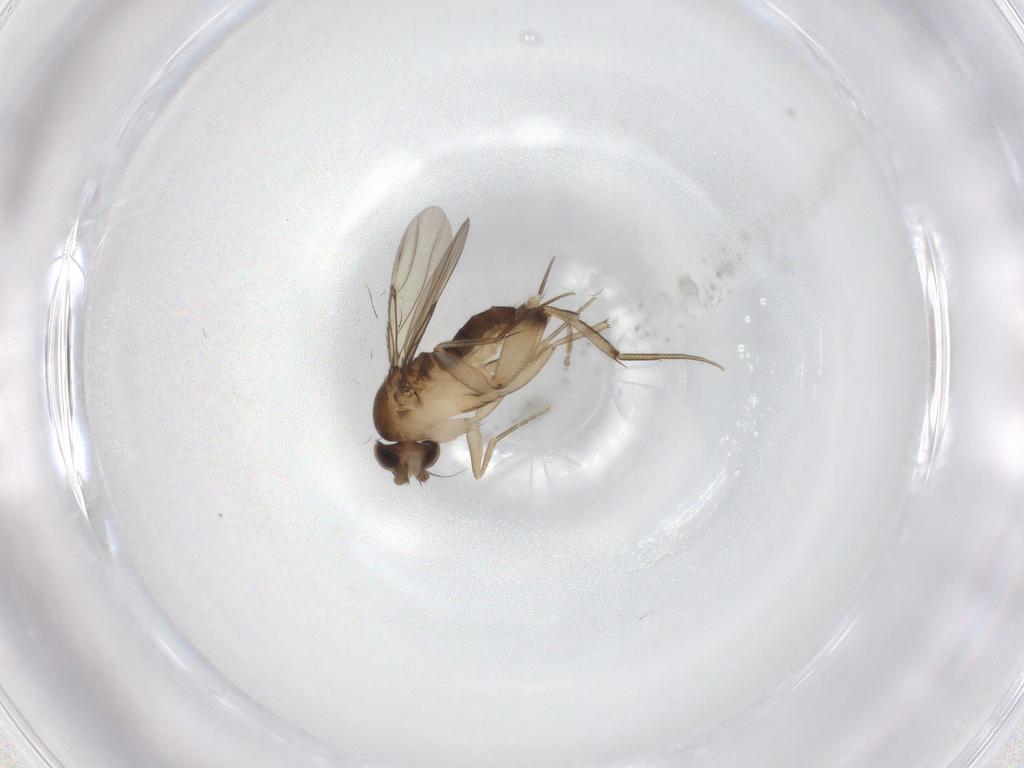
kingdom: Animalia
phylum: Arthropoda
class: Insecta
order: Diptera
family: Phoridae
